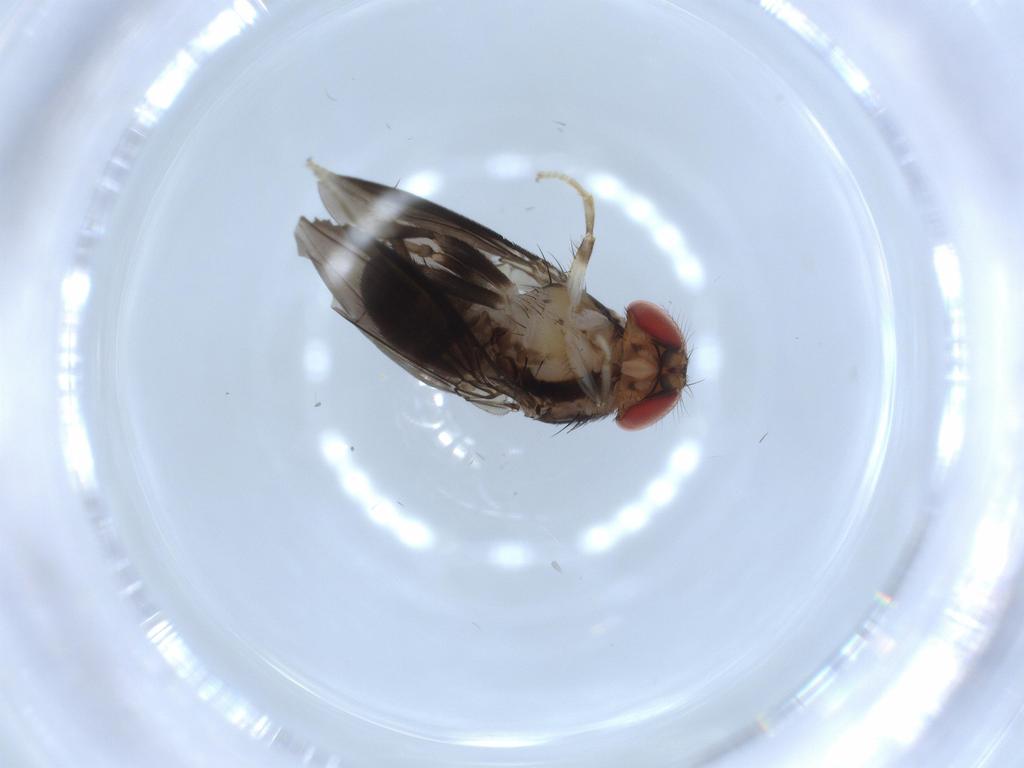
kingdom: Animalia
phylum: Arthropoda
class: Insecta
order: Diptera
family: Drosophilidae
